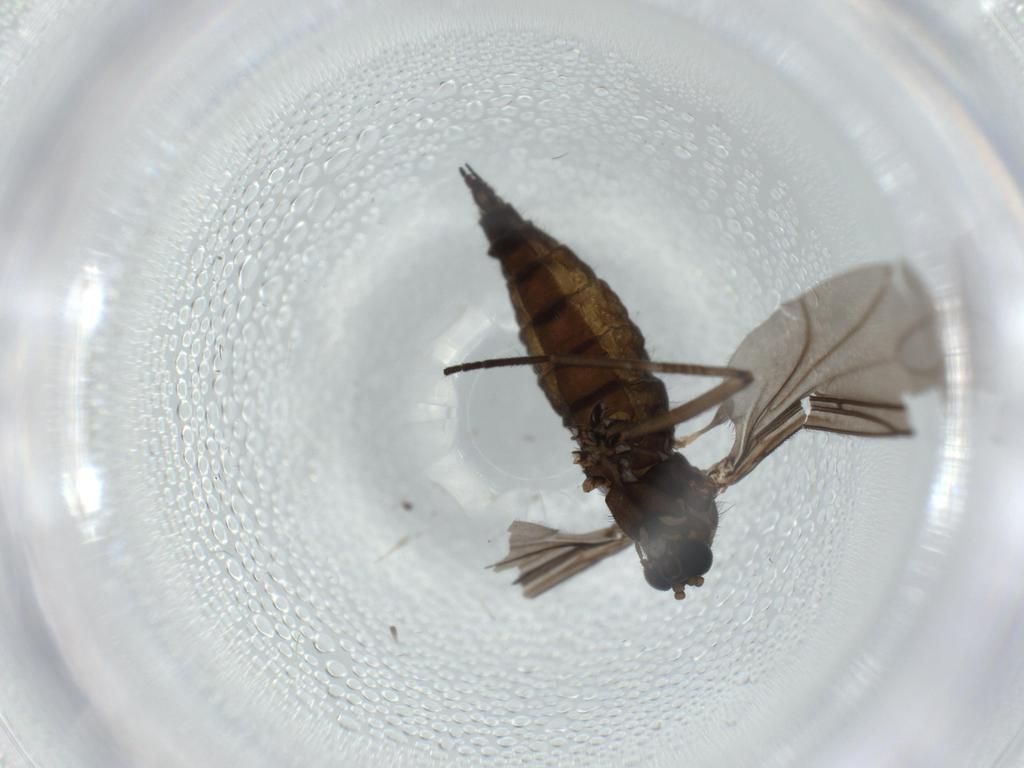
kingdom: Animalia
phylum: Arthropoda
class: Insecta
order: Diptera
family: Sciaridae
